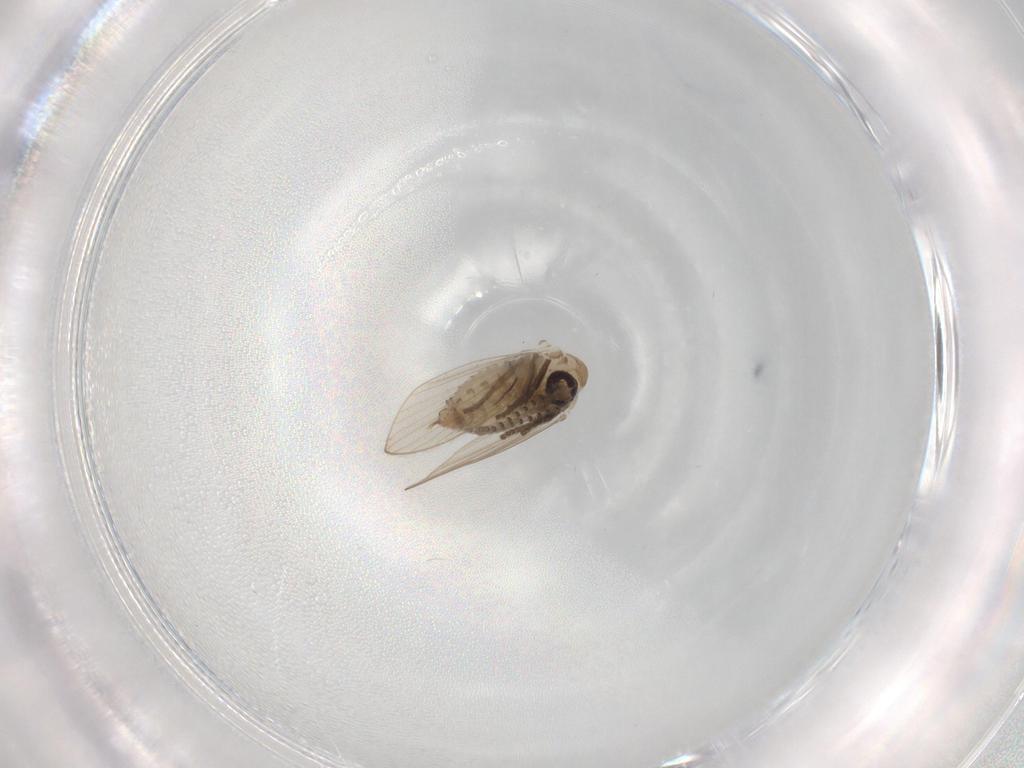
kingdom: Animalia
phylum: Arthropoda
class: Insecta
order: Diptera
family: Psychodidae
